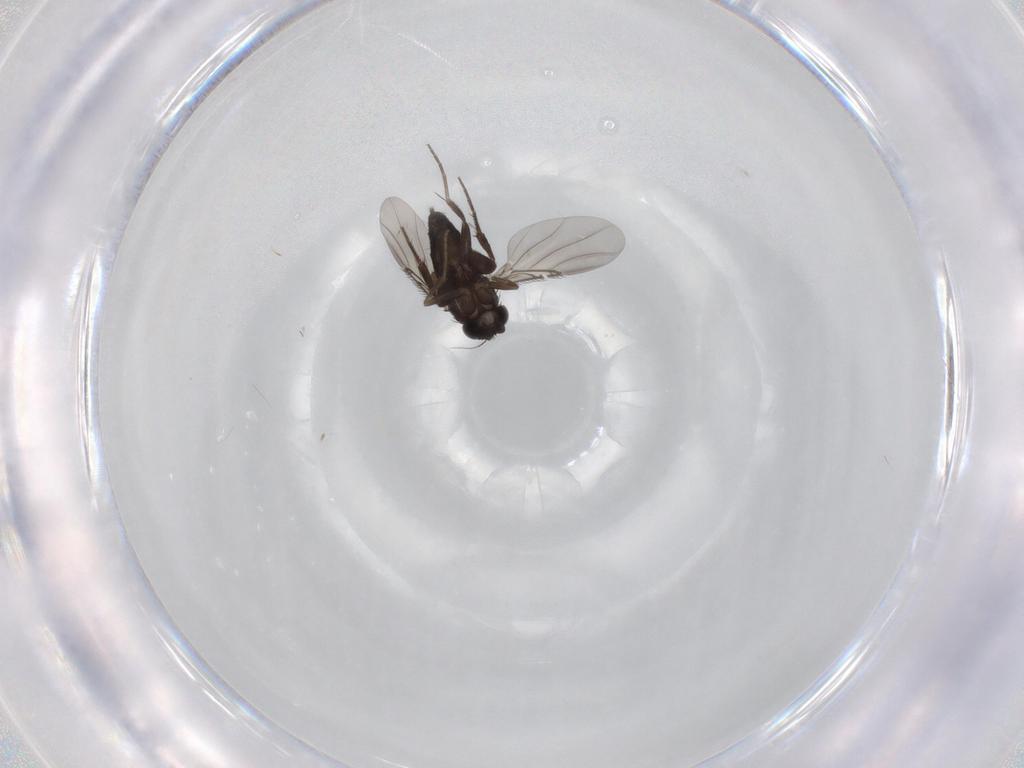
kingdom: Animalia
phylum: Arthropoda
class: Insecta
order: Diptera
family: Phoridae
